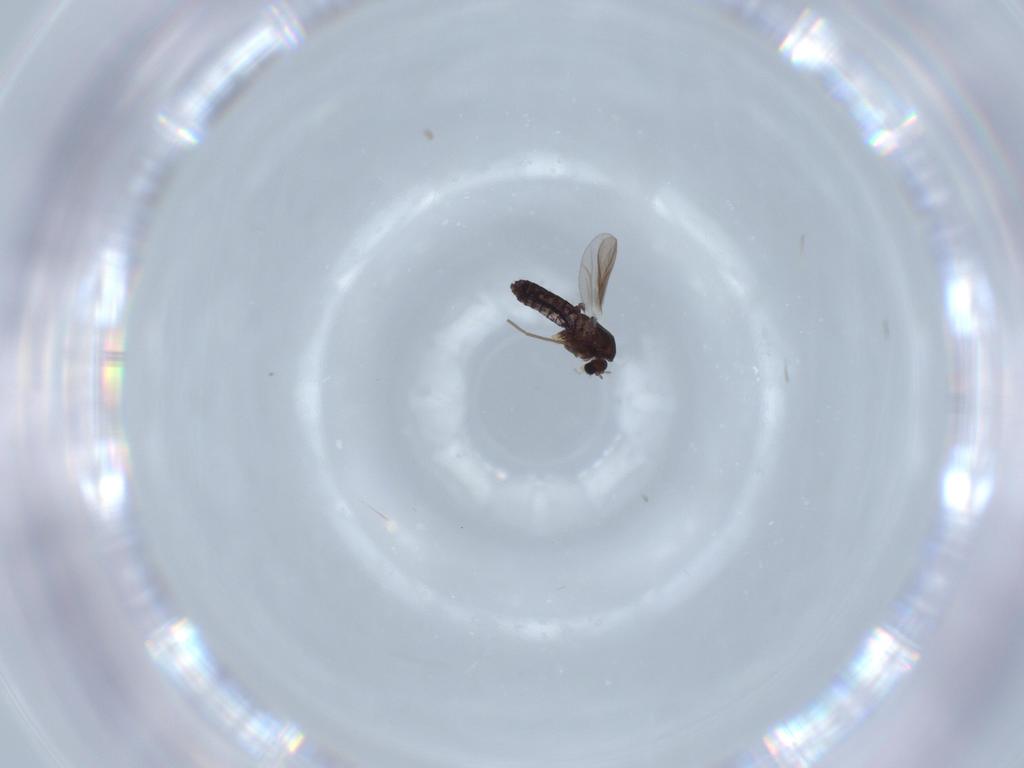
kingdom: Animalia
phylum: Arthropoda
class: Insecta
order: Diptera
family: Chironomidae
